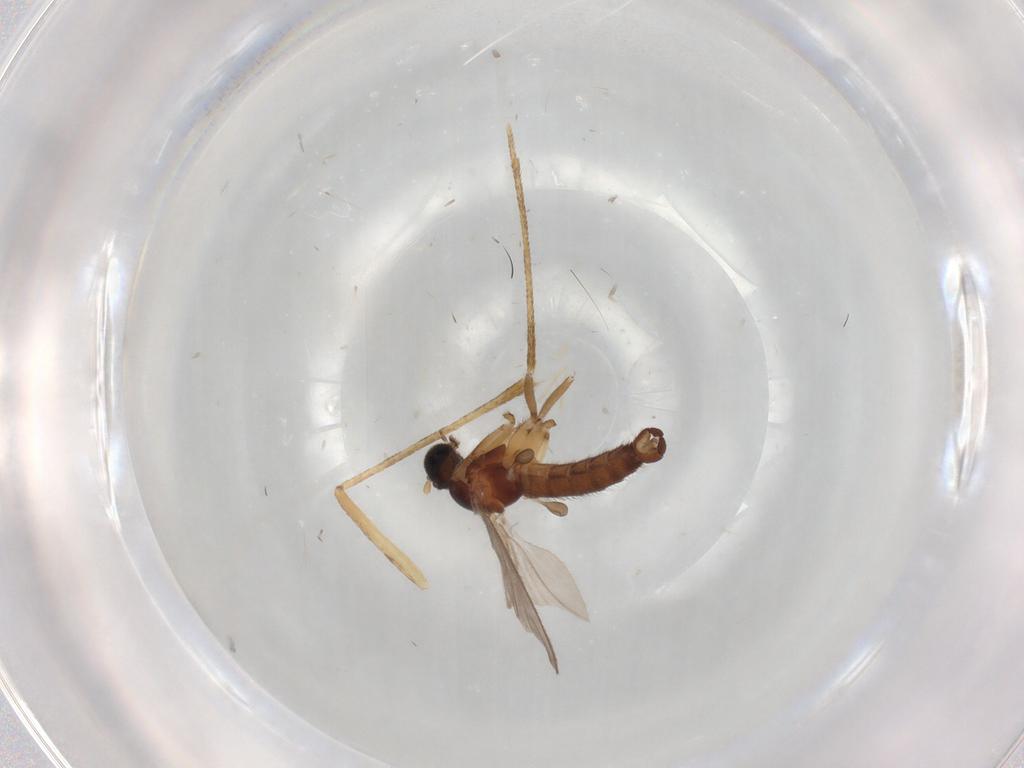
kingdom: Animalia
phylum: Arthropoda
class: Insecta
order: Diptera
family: Culicidae
